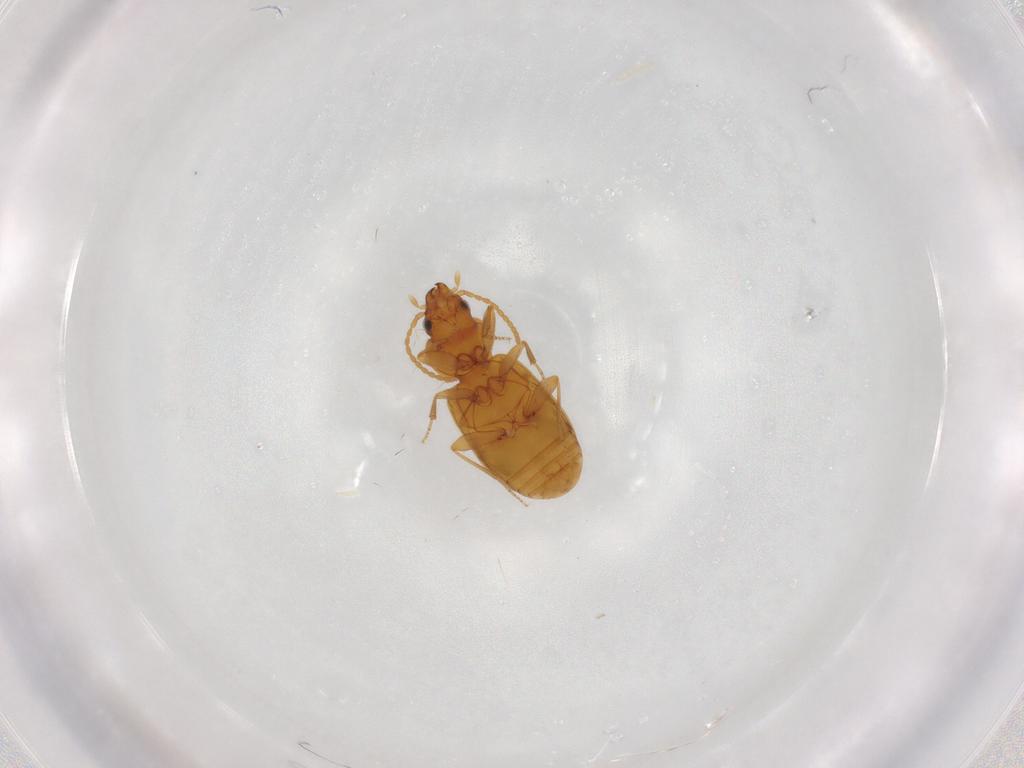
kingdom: Animalia
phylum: Arthropoda
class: Insecta
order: Coleoptera
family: Carabidae
